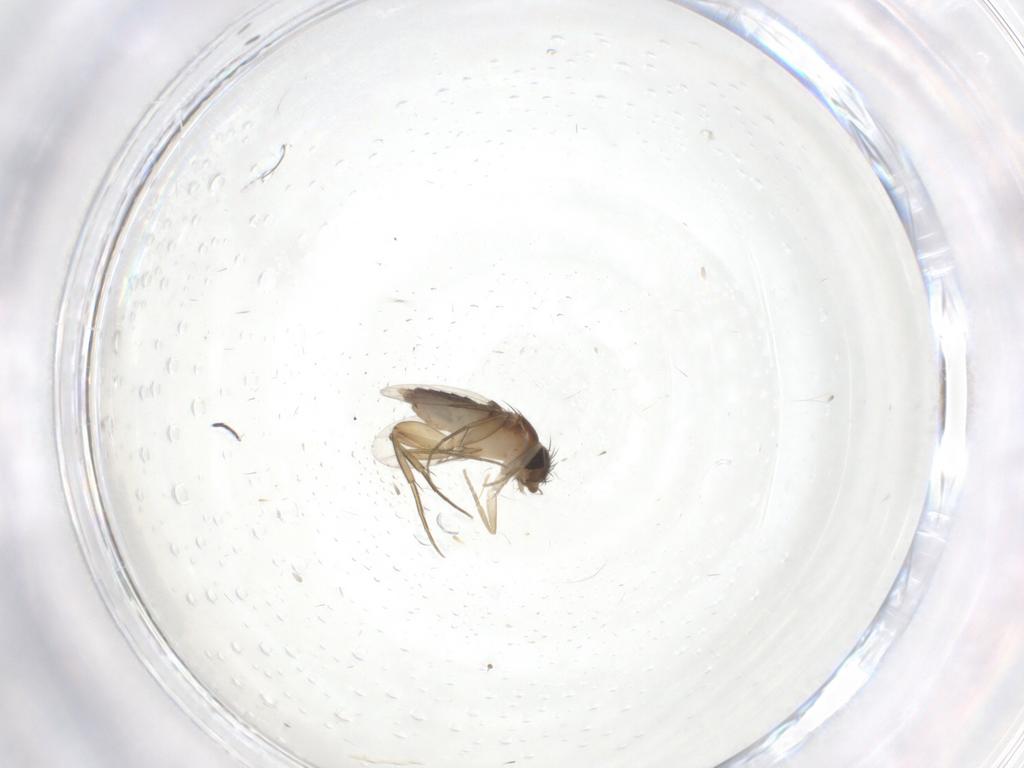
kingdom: Animalia
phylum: Arthropoda
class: Insecta
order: Diptera
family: Phoridae
